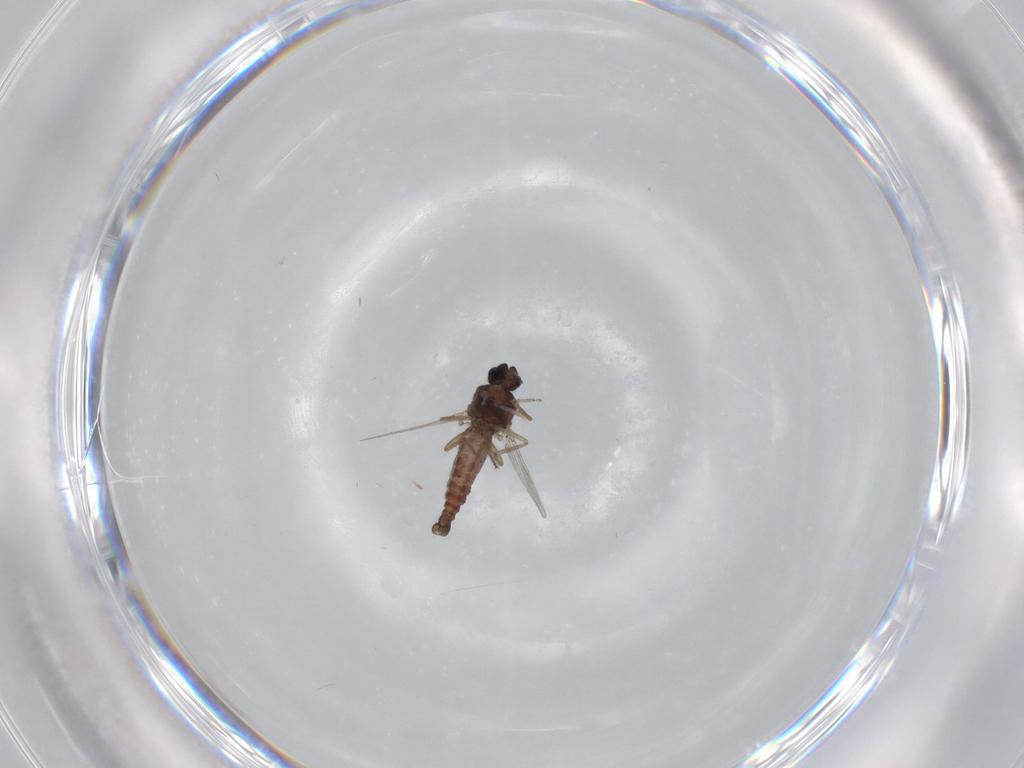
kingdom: Animalia
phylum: Arthropoda
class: Insecta
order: Diptera
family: Ceratopogonidae
